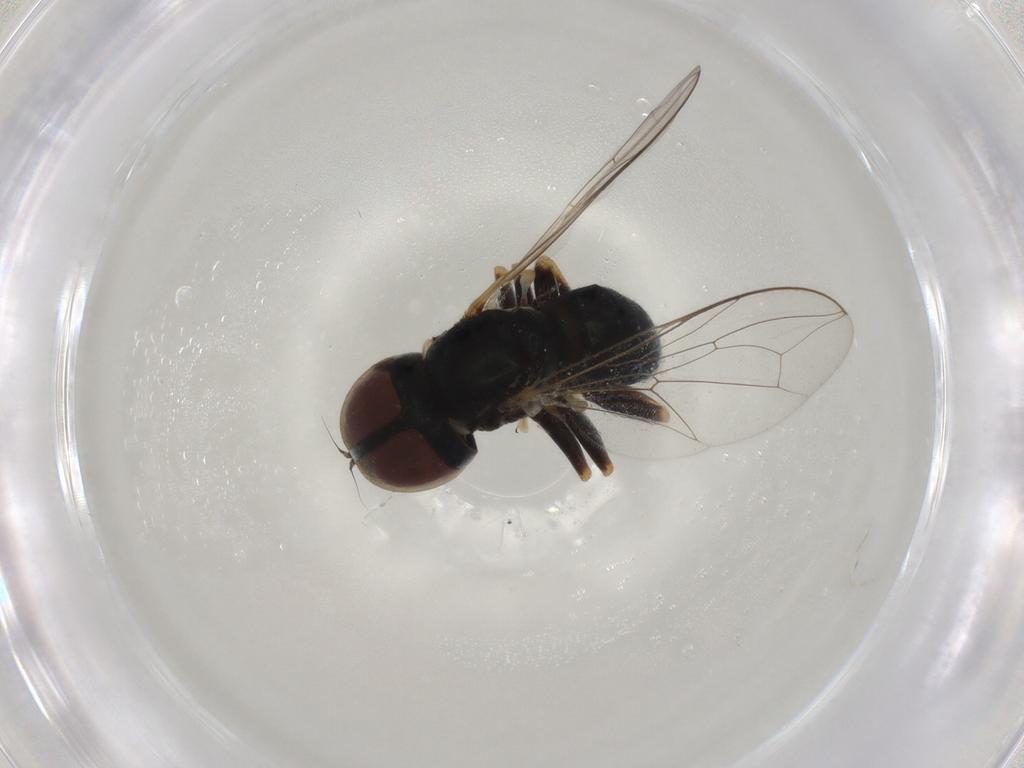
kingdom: Animalia
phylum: Arthropoda
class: Insecta
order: Diptera
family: Pipunculidae
